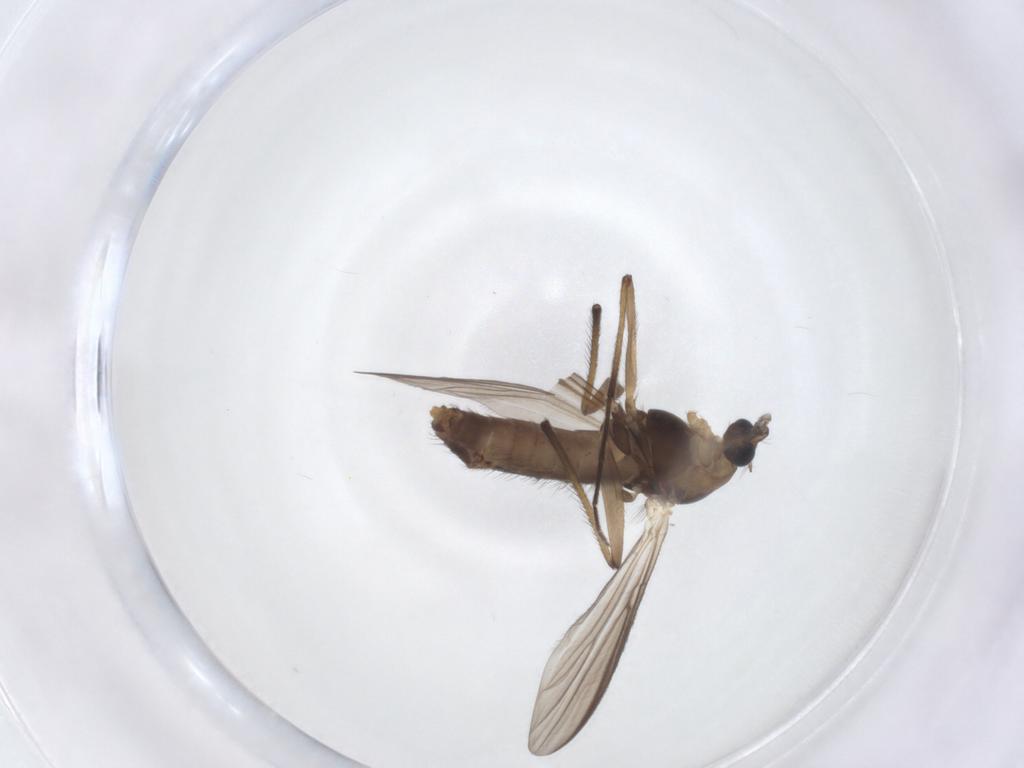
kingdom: Animalia
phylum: Arthropoda
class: Insecta
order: Diptera
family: Chironomidae
